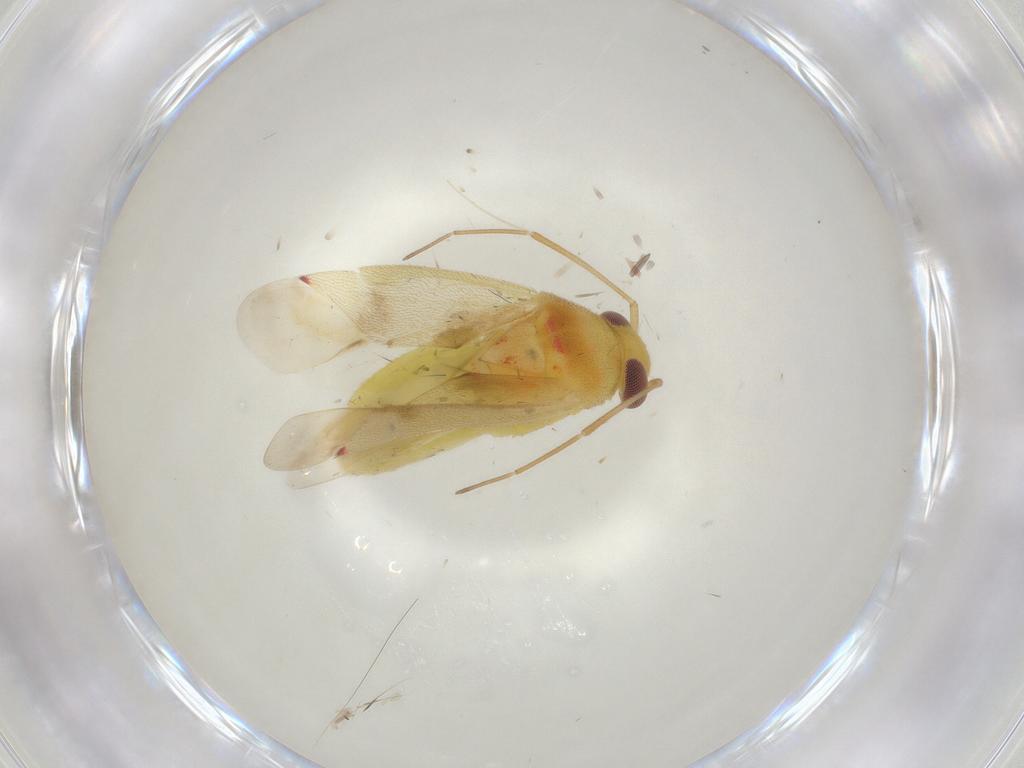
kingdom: Animalia
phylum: Arthropoda
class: Insecta
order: Hemiptera
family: Miridae
